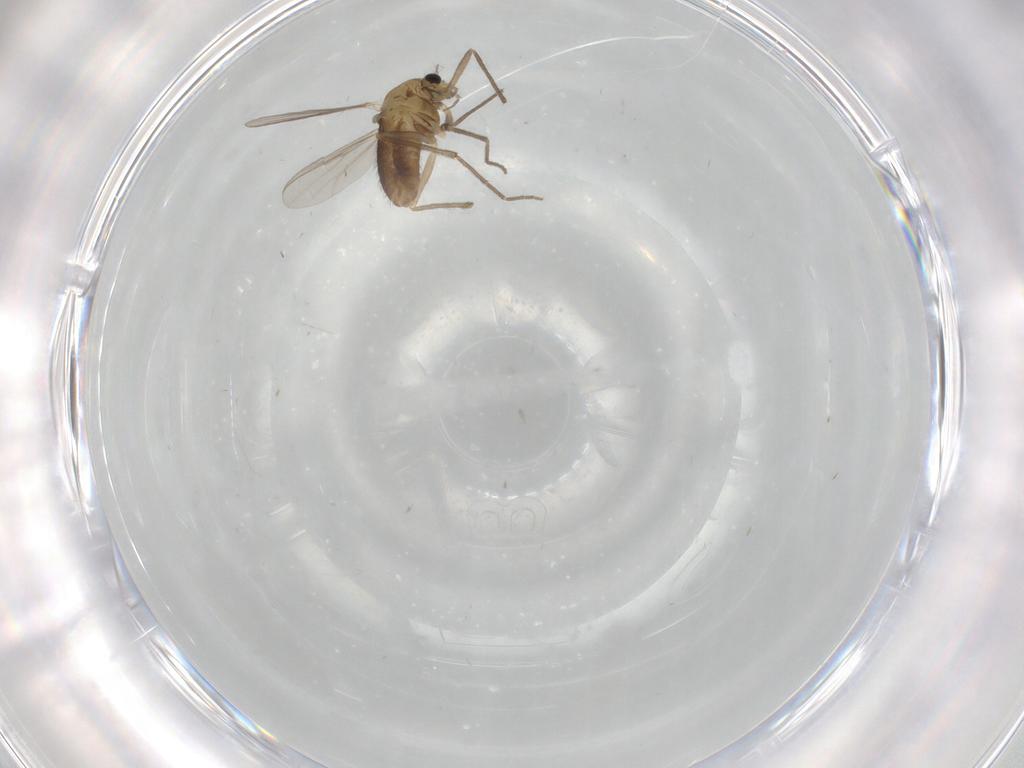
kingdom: Animalia
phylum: Arthropoda
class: Insecta
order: Diptera
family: Chironomidae
